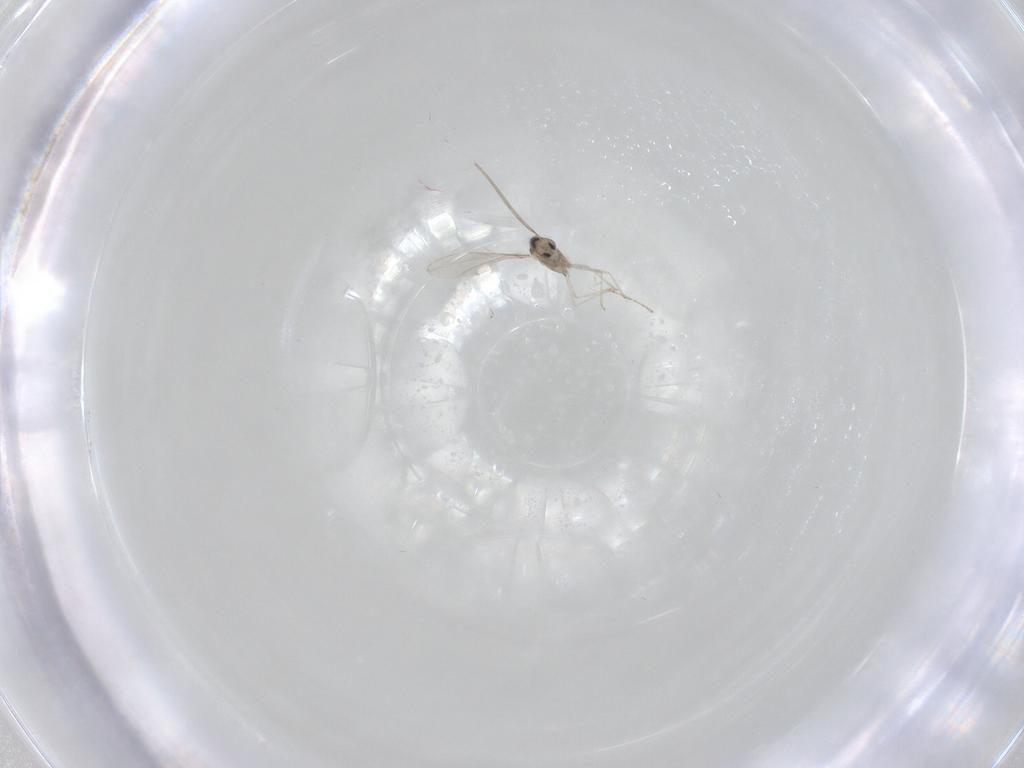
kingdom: Animalia
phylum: Arthropoda
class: Insecta
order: Diptera
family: Cecidomyiidae
